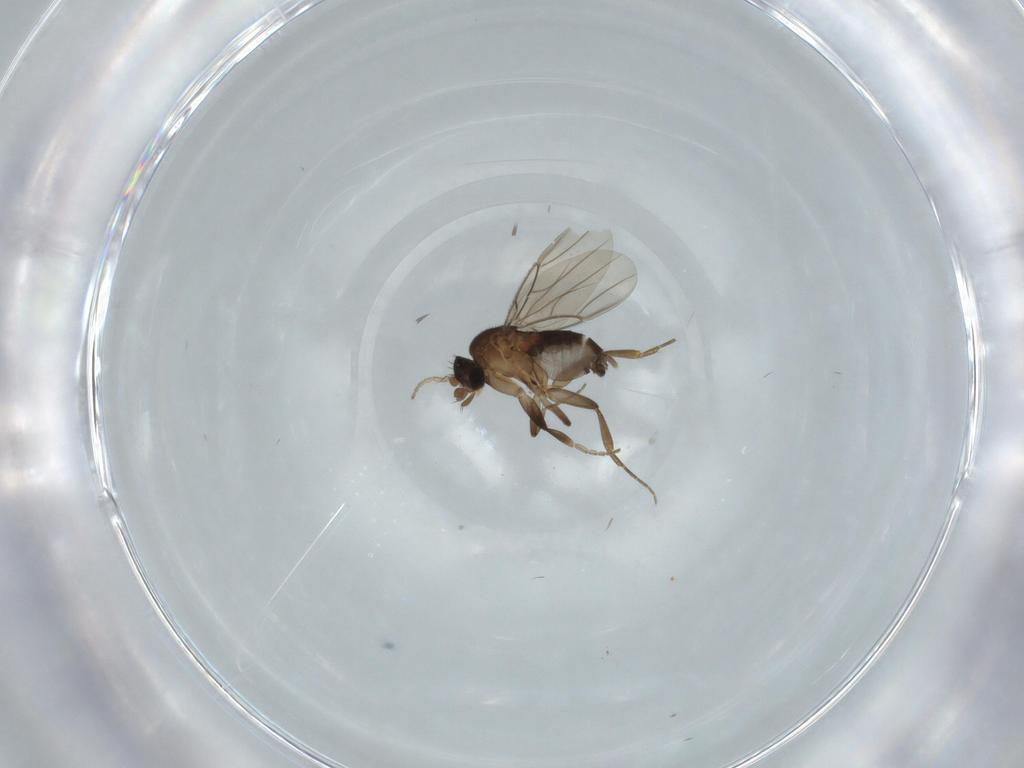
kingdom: Animalia
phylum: Arthropoda
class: Insecta
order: Diptera
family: Phoridae
